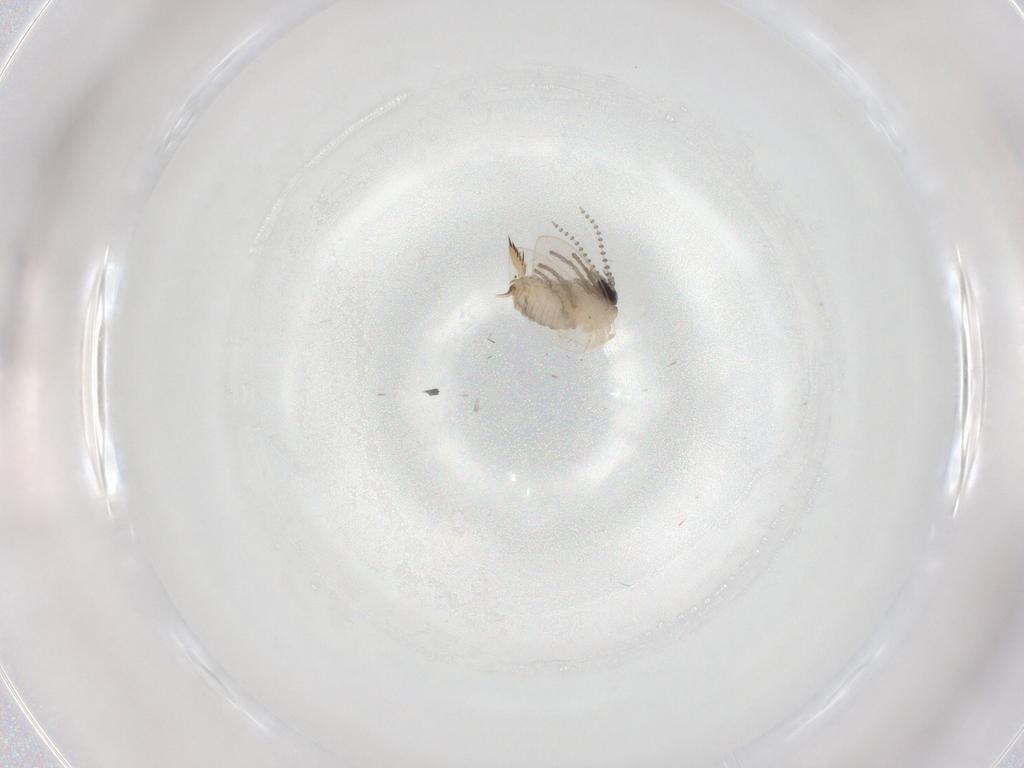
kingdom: Animalia
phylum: Arthropoda
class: Insecta
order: Diptera
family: Phoridae
